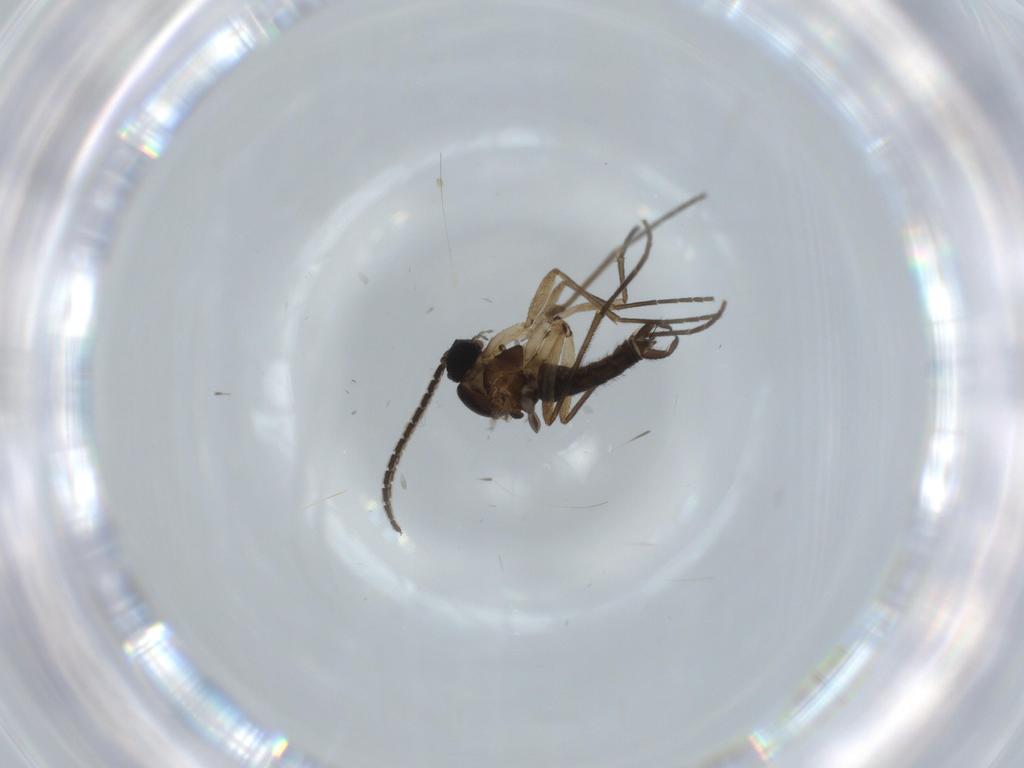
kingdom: Animalia
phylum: Arthropoda
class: Insecta
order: Diptera
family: Sciaridae
